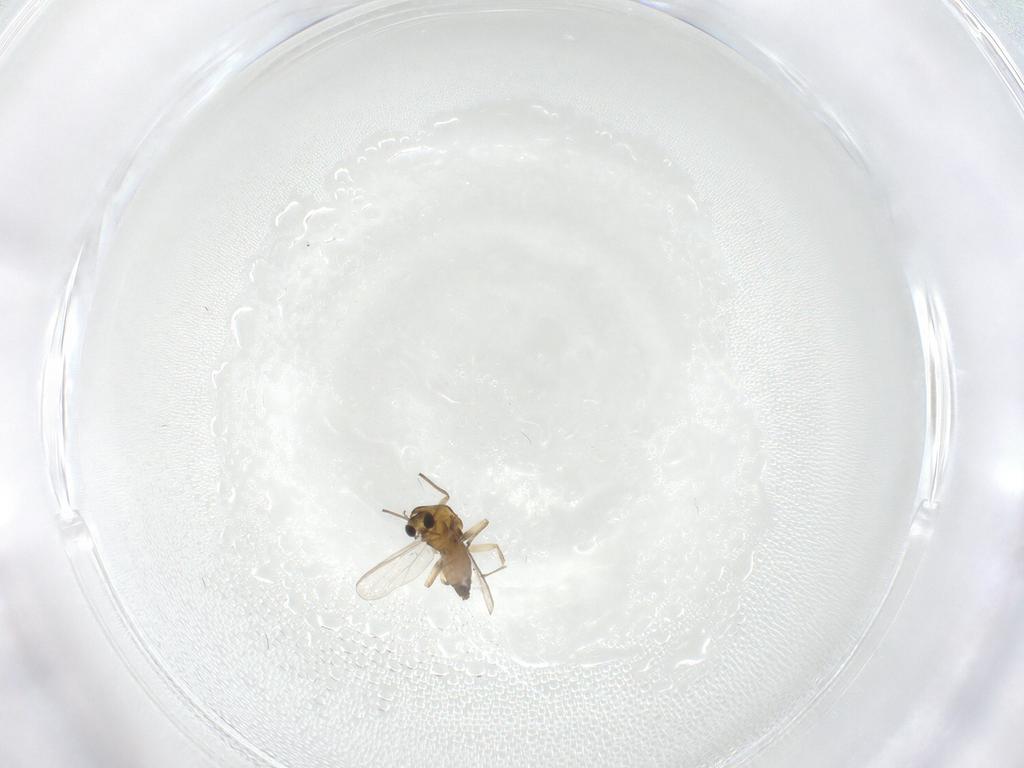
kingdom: Animalia
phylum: Arthropoda
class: Insecta
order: Diptera
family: Chironomidae
